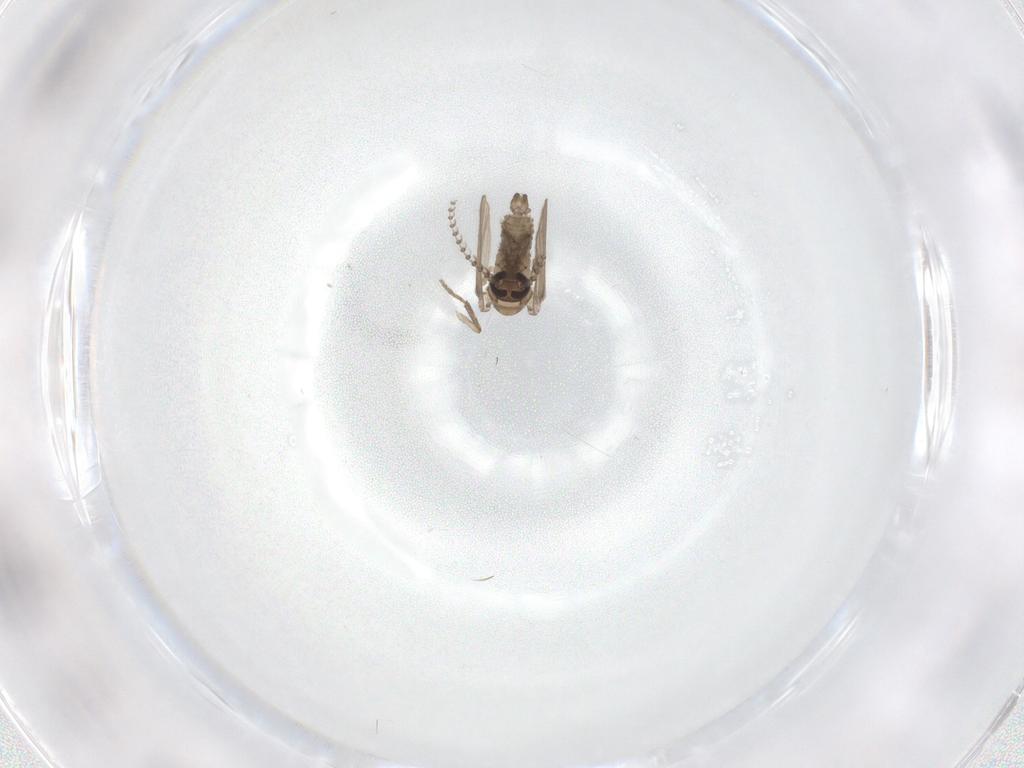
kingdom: Animalia
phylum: Arthropoda
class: Insecta
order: Diptera
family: Psychodidae
